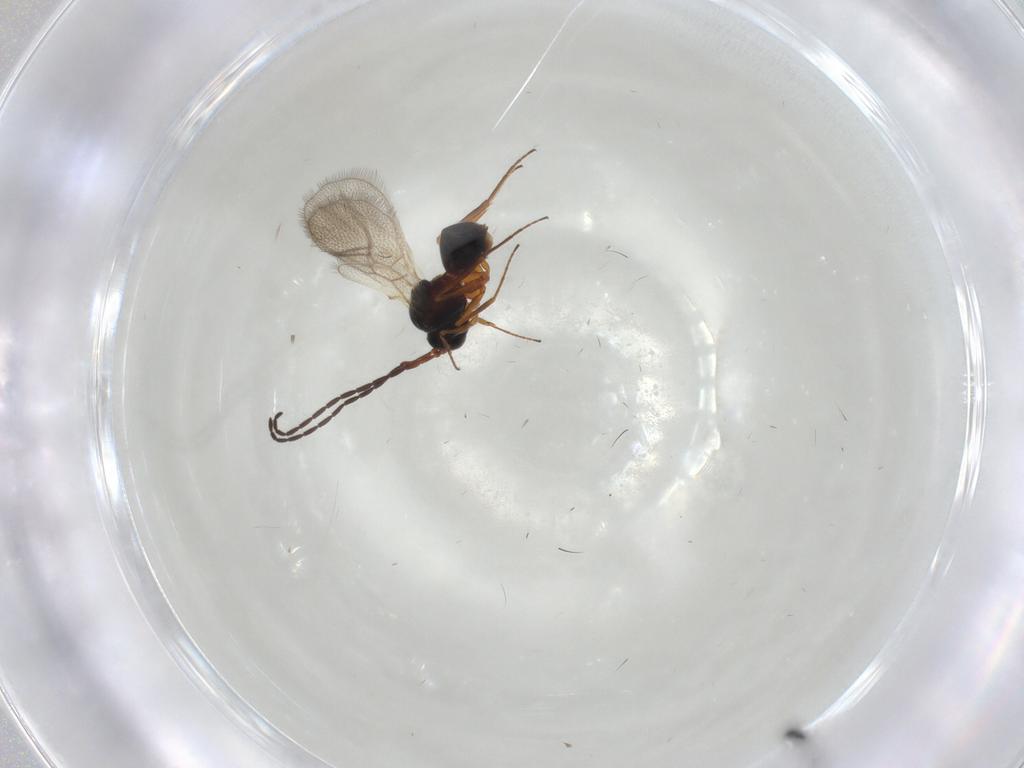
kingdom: Animalia
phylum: Arthropoda
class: Insecta
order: Hymenoptera
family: Figitidae
